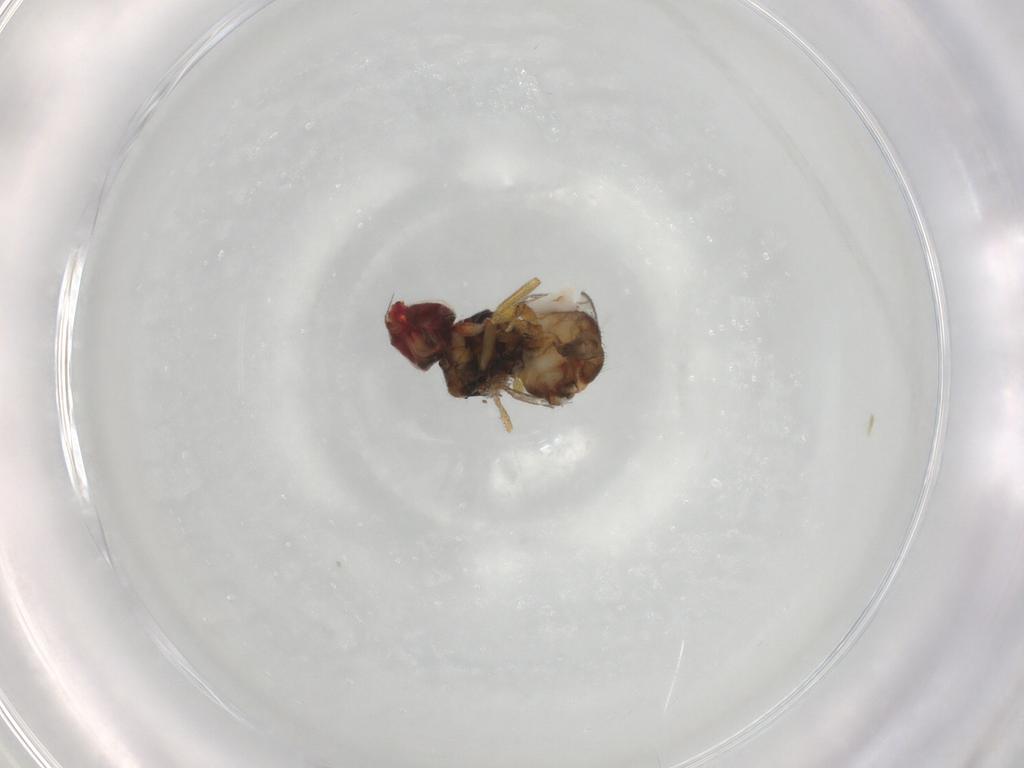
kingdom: Animalia
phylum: Arthropoda
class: Insecta
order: Diptera
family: Chloropidae
